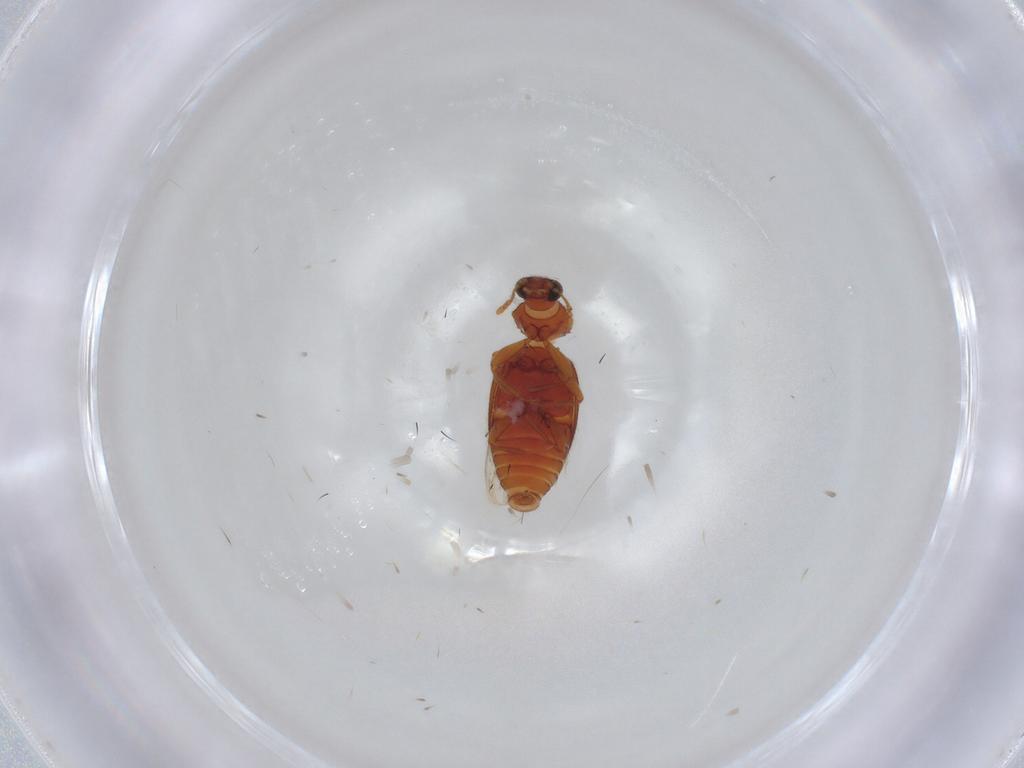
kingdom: Animalia
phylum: Arthropoda
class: Insecta
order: Coleoptera
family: Latridiidae
